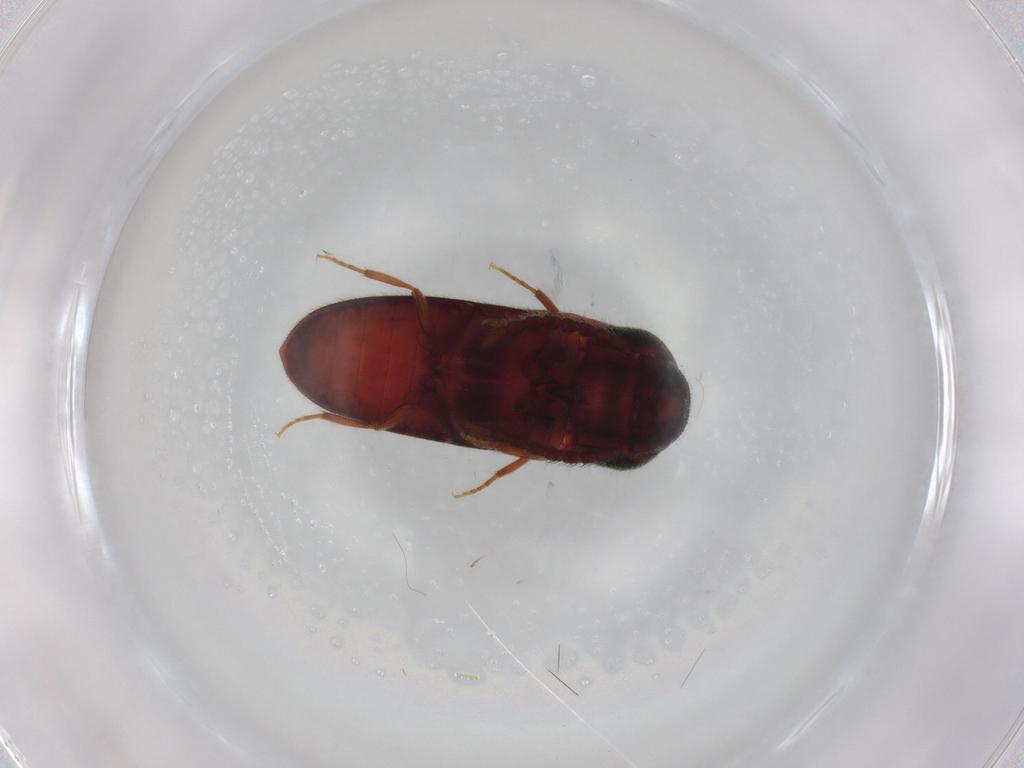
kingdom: Animalia
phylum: Arthropoda
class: Insecta
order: Coleoptera
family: Eucnemidae
